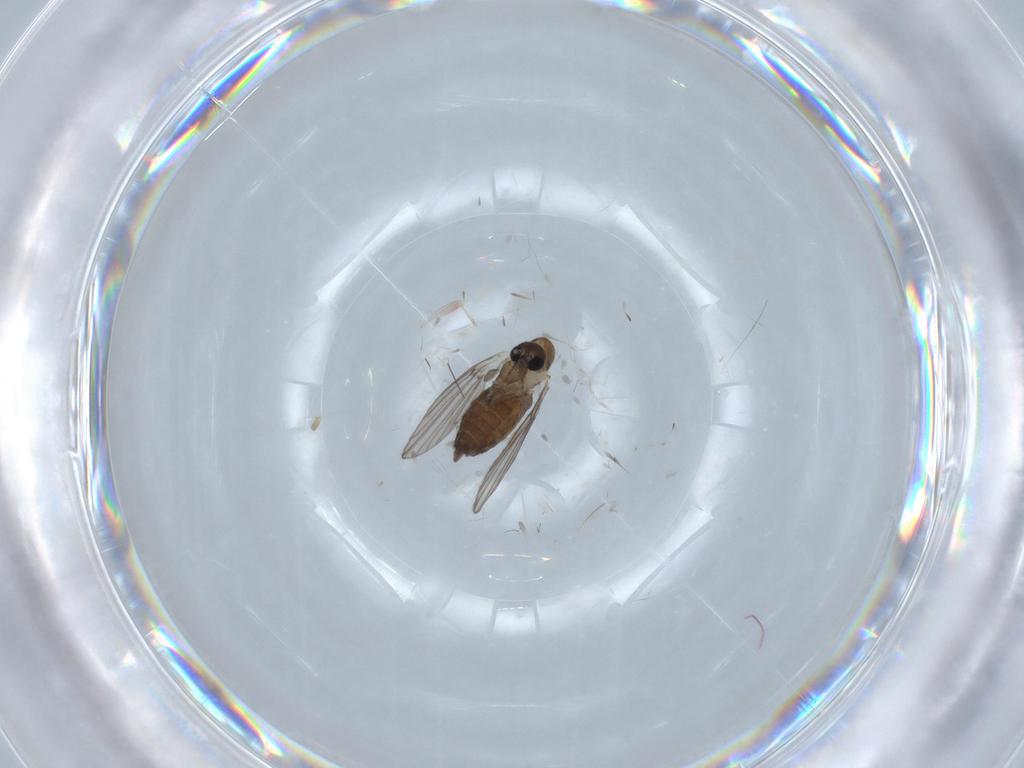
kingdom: Animalia
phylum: Arthropoda
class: Insecta
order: Diptera
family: Psychodidae
